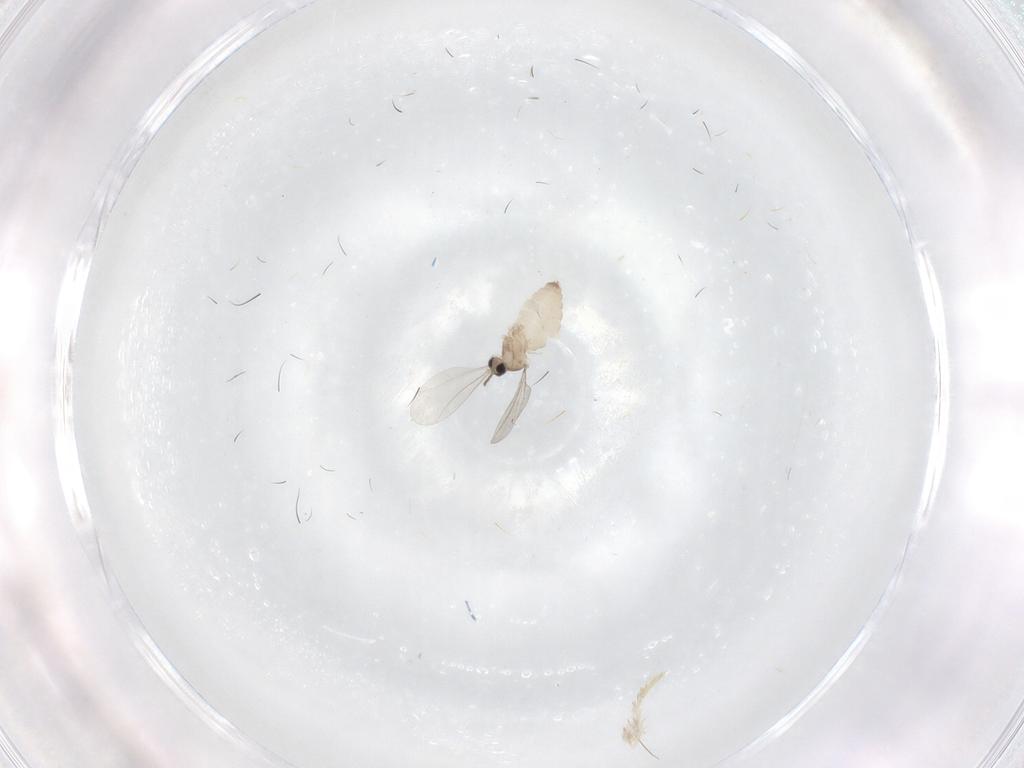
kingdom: Animalia
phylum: Arthropoda
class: Insecta
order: Diptera
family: Cecidomyiidae
